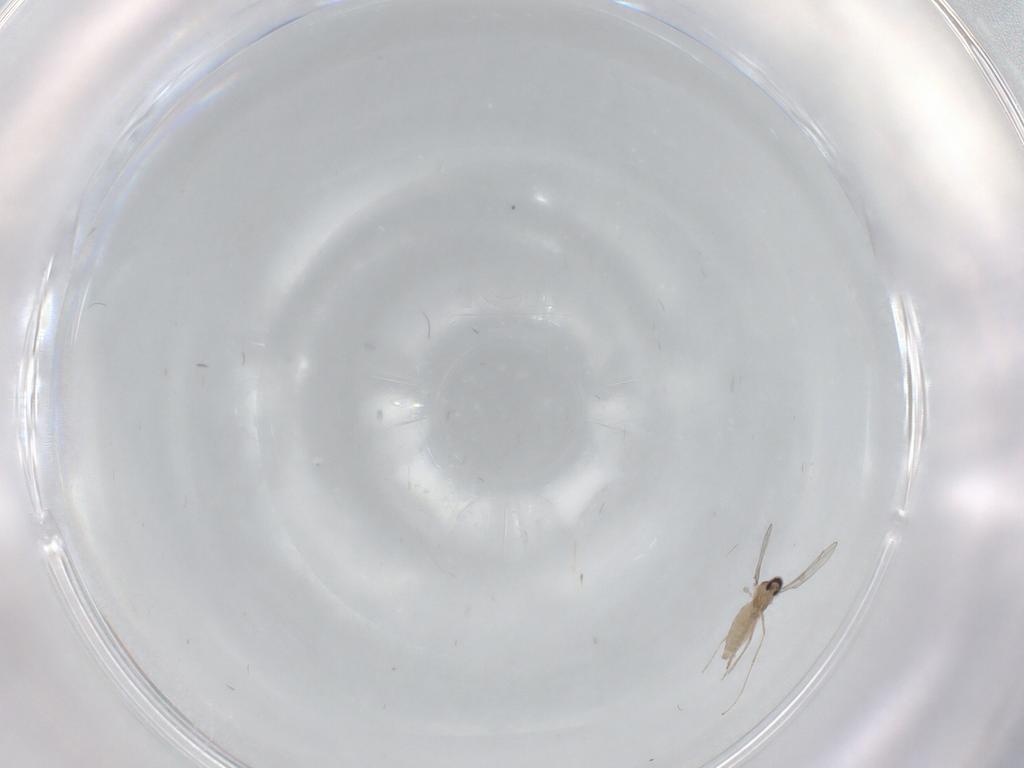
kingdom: Animalia
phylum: Arthropoda
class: Insecta
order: Diptera
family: Cecidomyiidae
